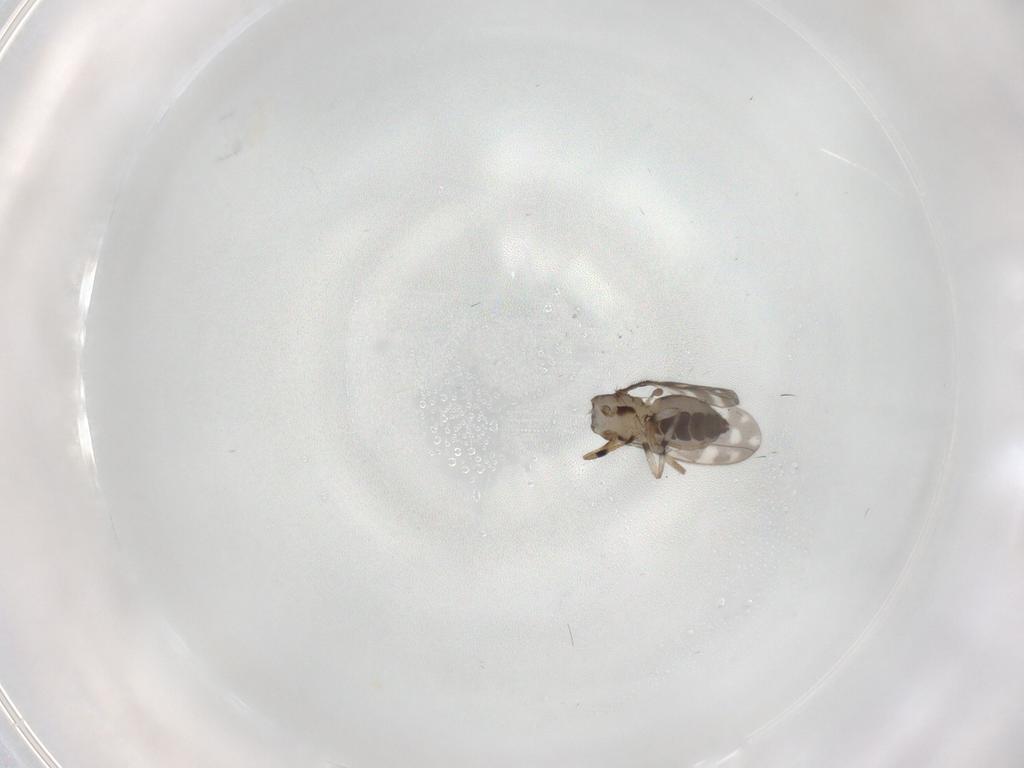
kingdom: Animalia
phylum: Arthropoda
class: Insecta
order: Diptera
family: Sphaeroceridae
